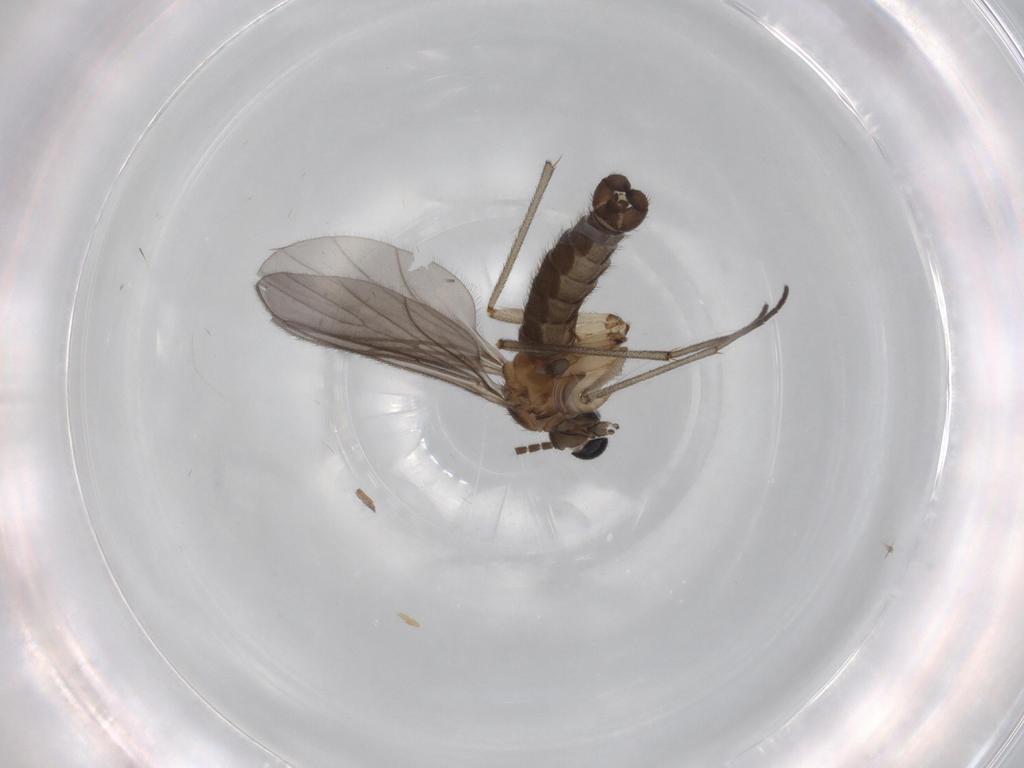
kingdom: Animalia
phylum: Arthropoda
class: Insecta
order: Diptera
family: Sciaridae
